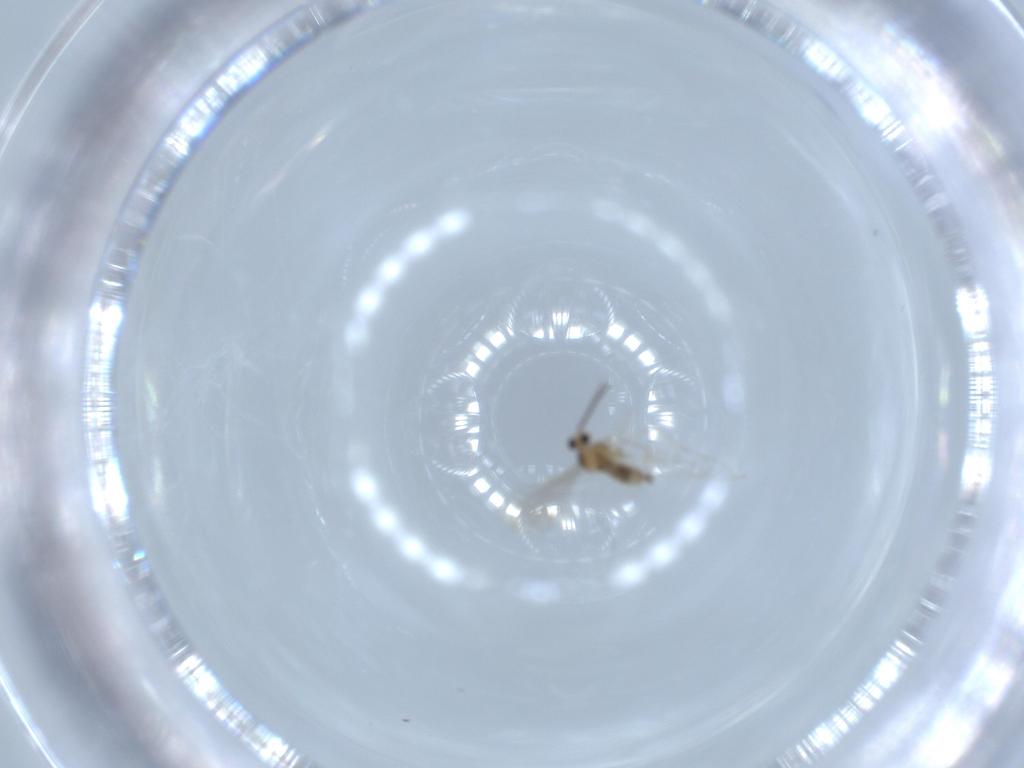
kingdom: Animalia
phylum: Arthropoda
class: Insecta
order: Diptera
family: Cecidomyiidae
